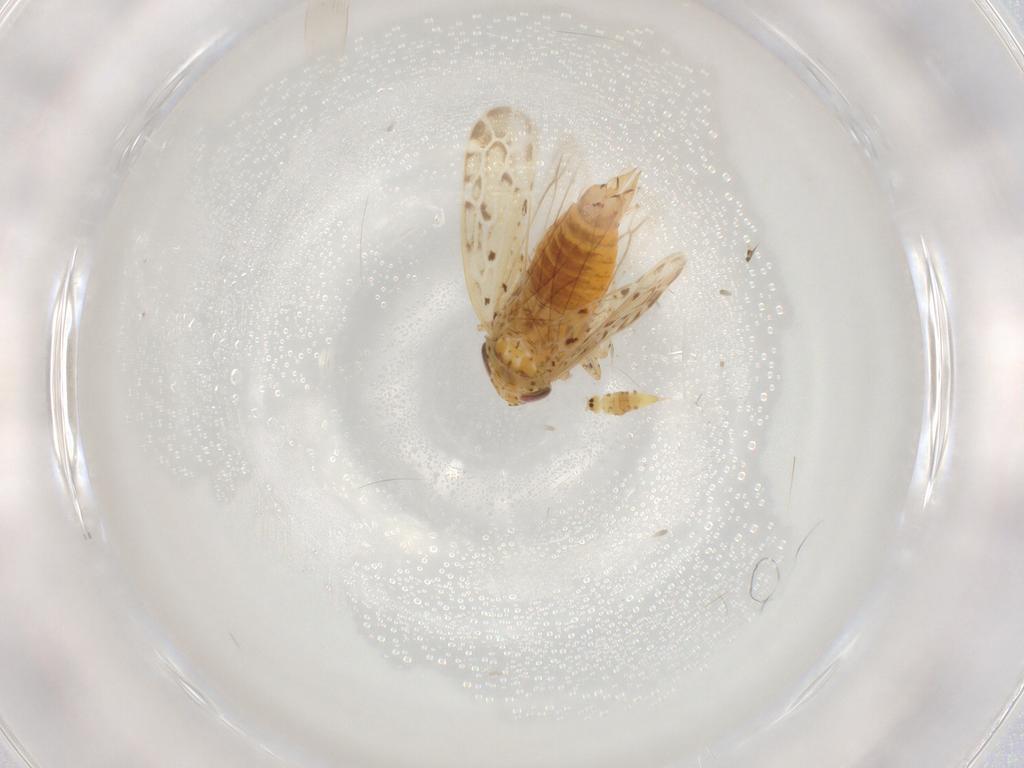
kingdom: Animalia
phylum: Arthropoda
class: Insecta
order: Hemiptera
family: Cicadellidae
